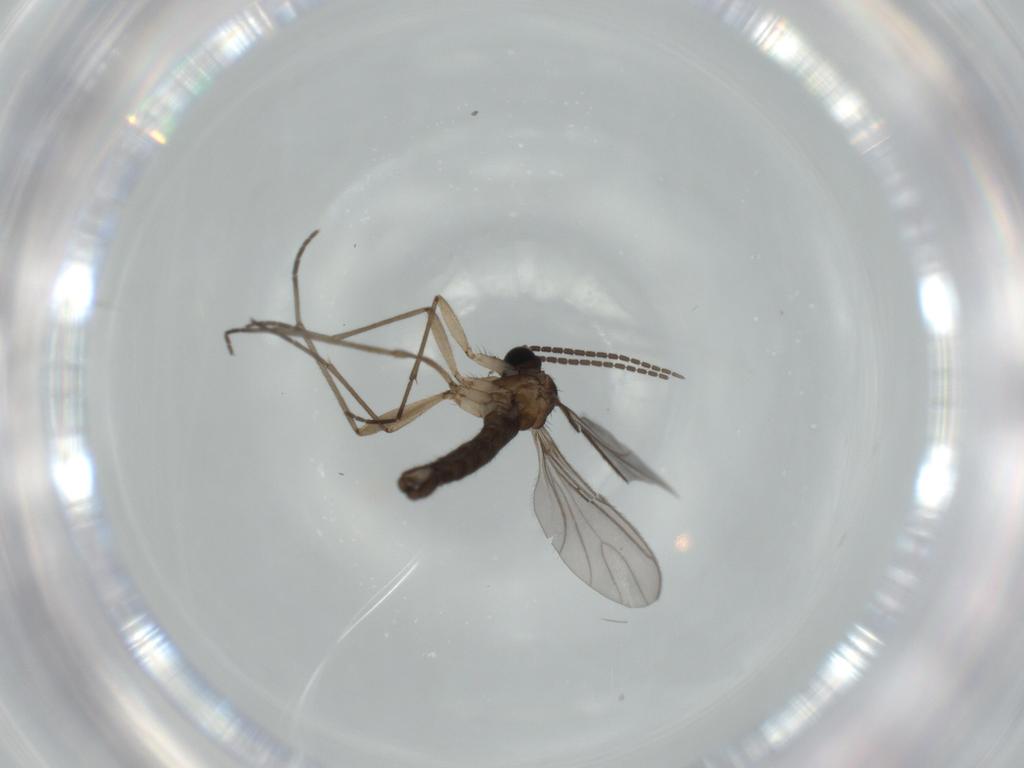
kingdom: Animalia
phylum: Arthropoda
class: Insecta
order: Diptera
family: Sciaridae
